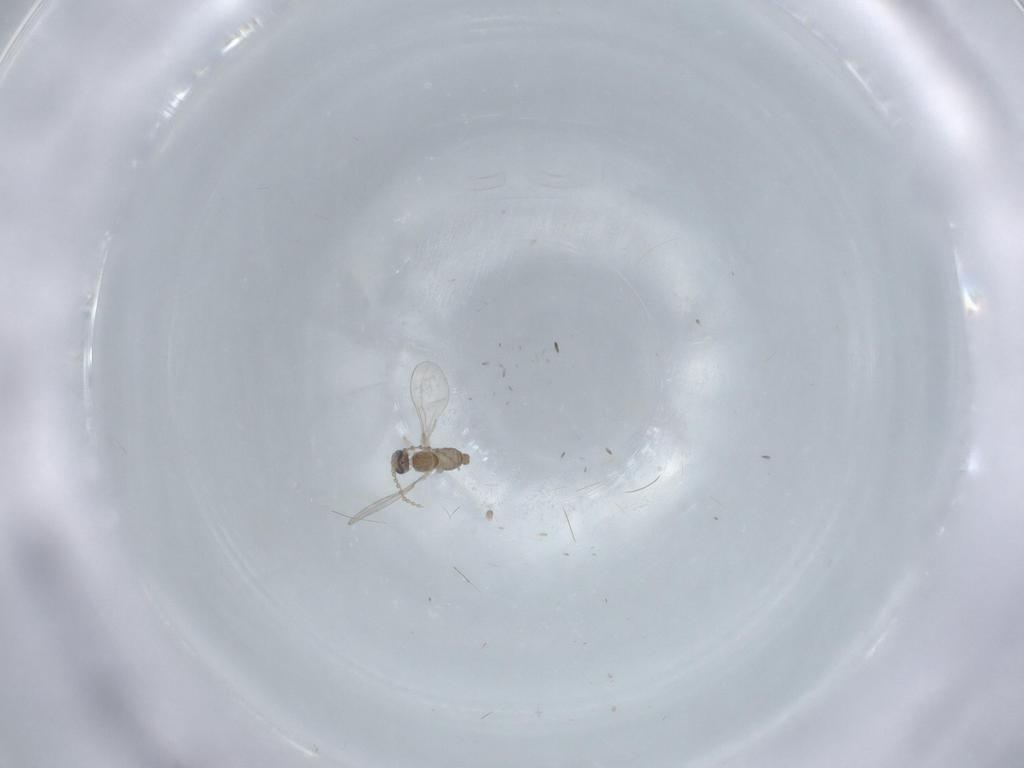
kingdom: Animalia
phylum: Arthropoda
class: Insecta
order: Diptera
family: Cecidomyiidae
